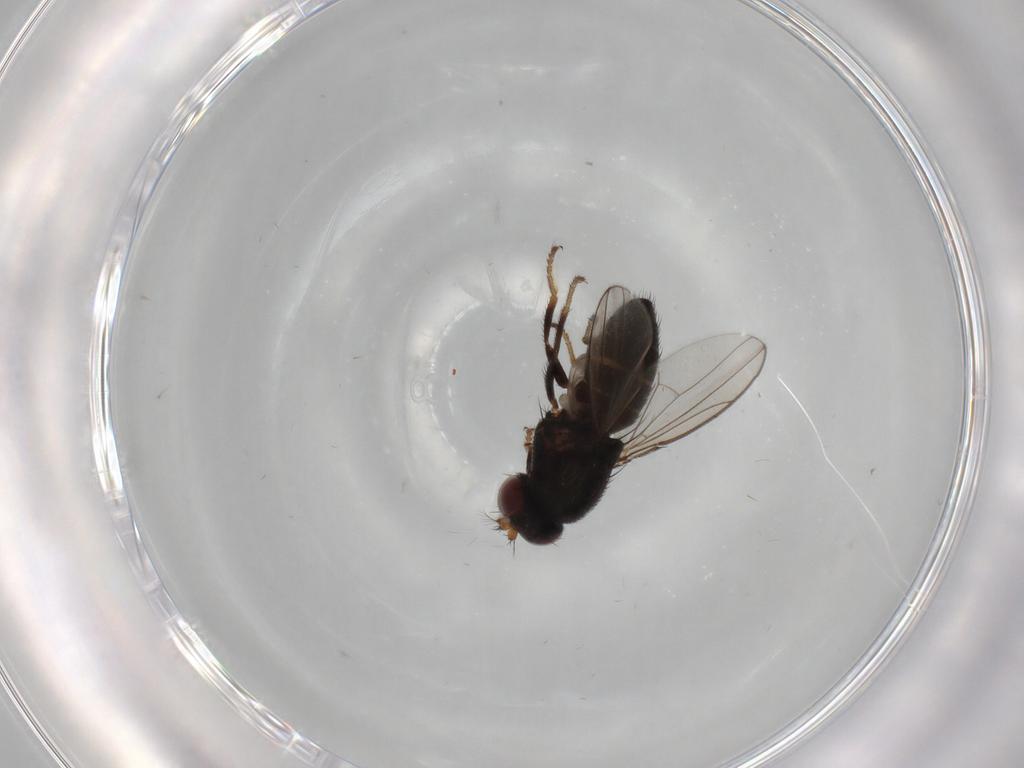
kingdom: Animalia
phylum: Arthropoda
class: Insecta
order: Diptera
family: Ephydridae
